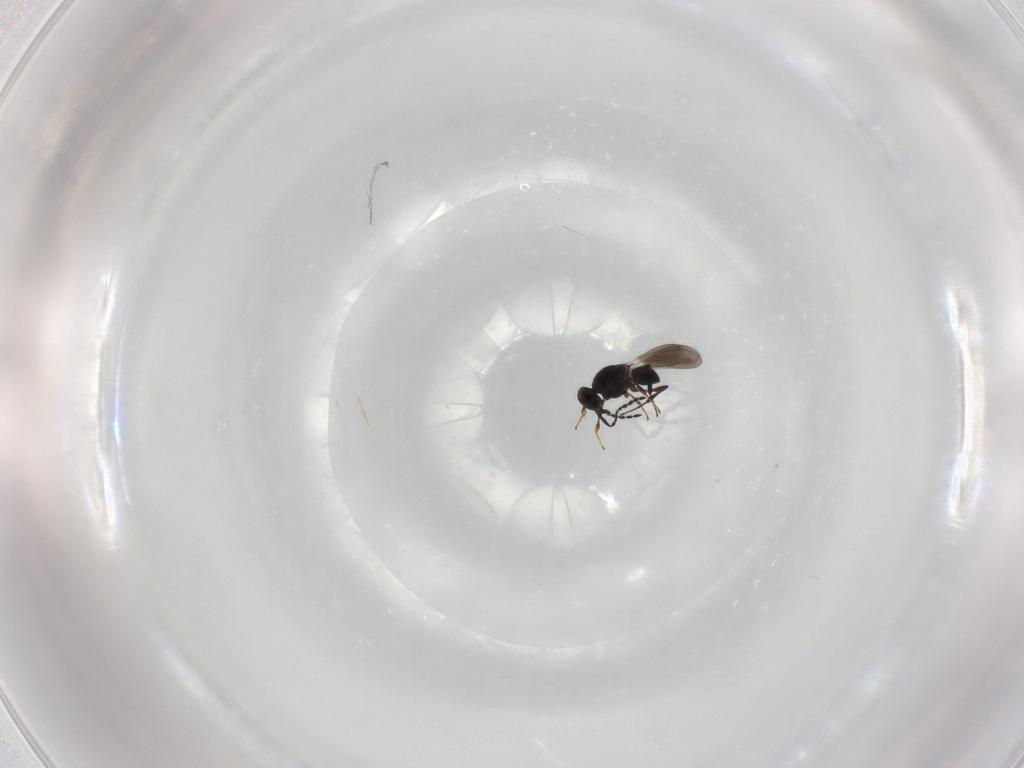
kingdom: Animalia
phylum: Arthropoda
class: Insecta
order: Hymenoptera
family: Platygastridae
